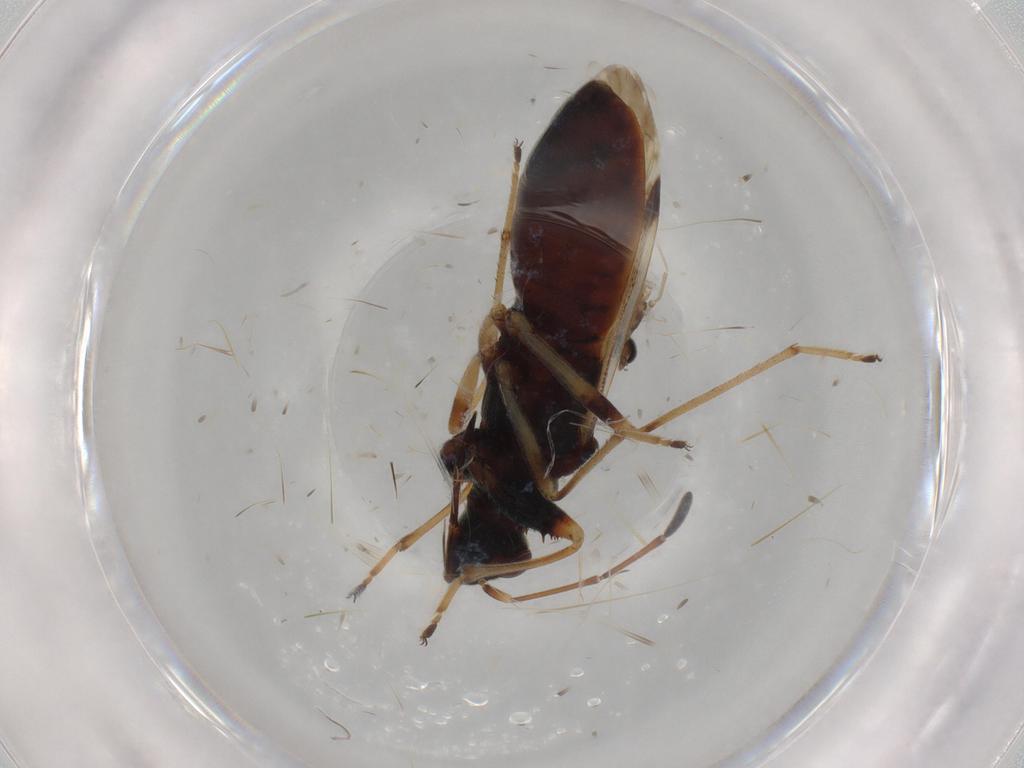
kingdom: Animalia
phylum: Arthropoda
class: Insecta
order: Hemiptera
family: Rhyparochromidae
